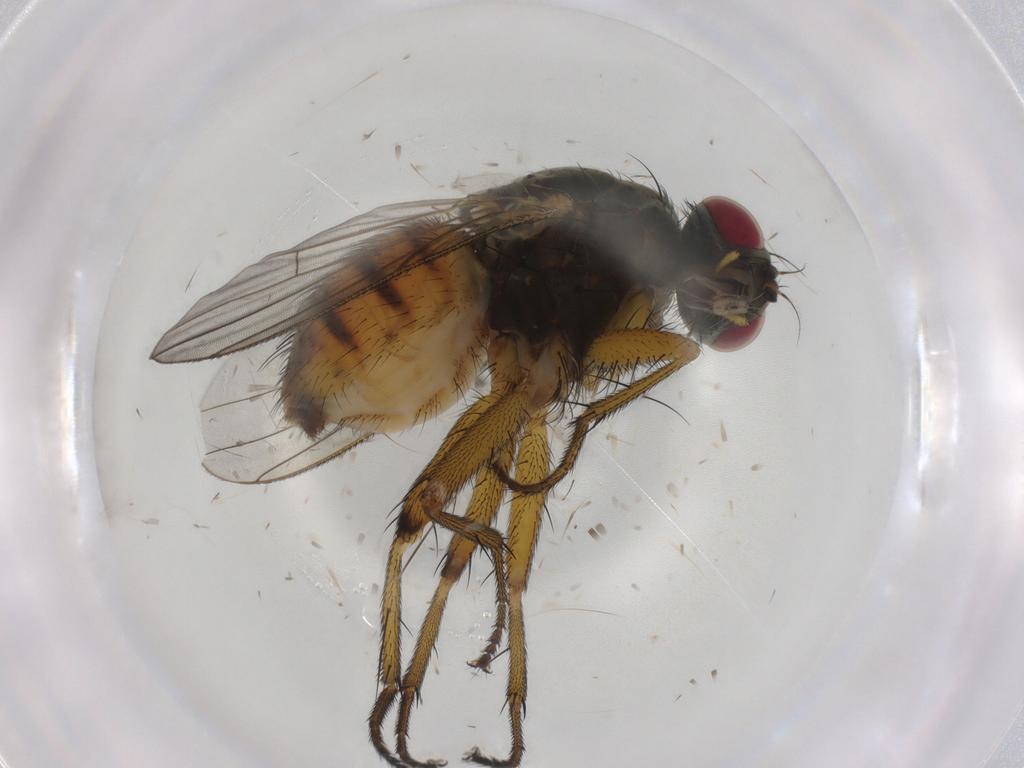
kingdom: Animalia
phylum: Arthropoda
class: Insecta
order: Diptera
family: Muscidae
